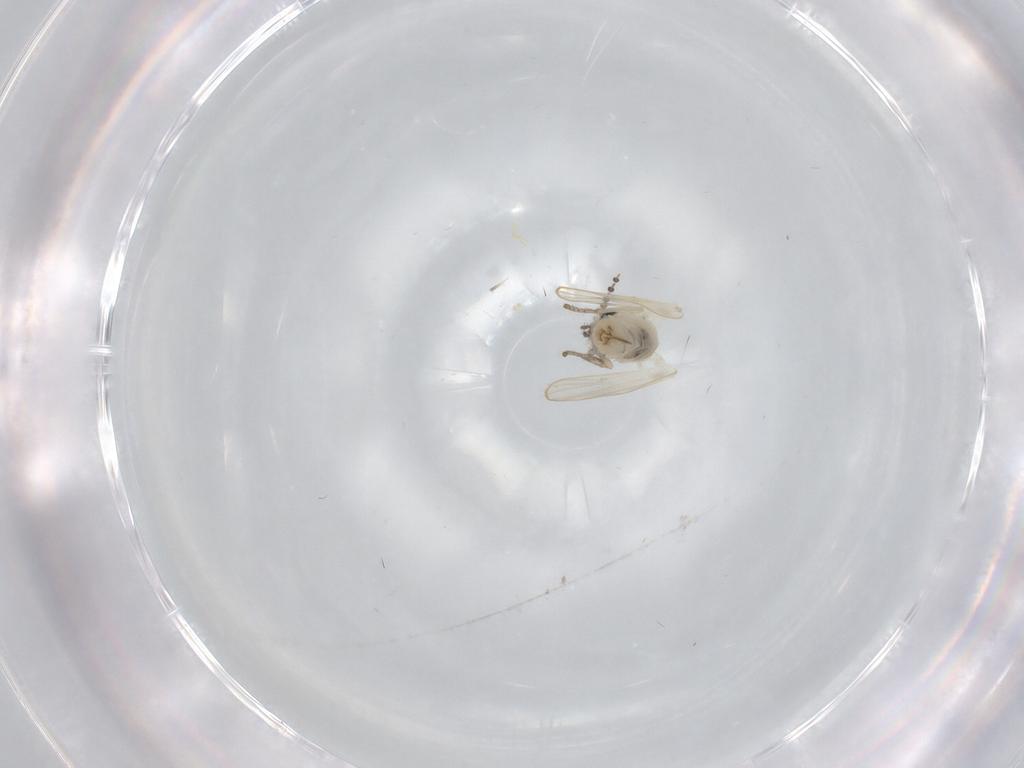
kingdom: Animalia
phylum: Arthropoda
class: Insecta
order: Diptera
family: Psychodidae
